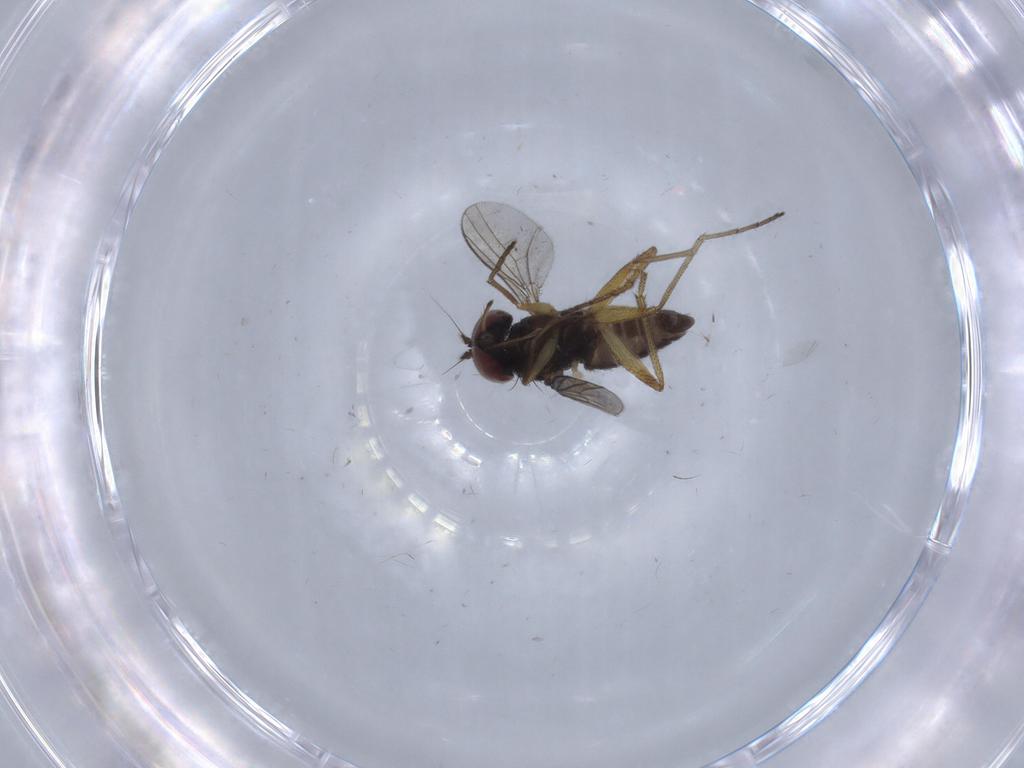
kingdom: Animalia
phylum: Arthropoda
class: Insecta
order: Diptera
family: Dolichopodidae
